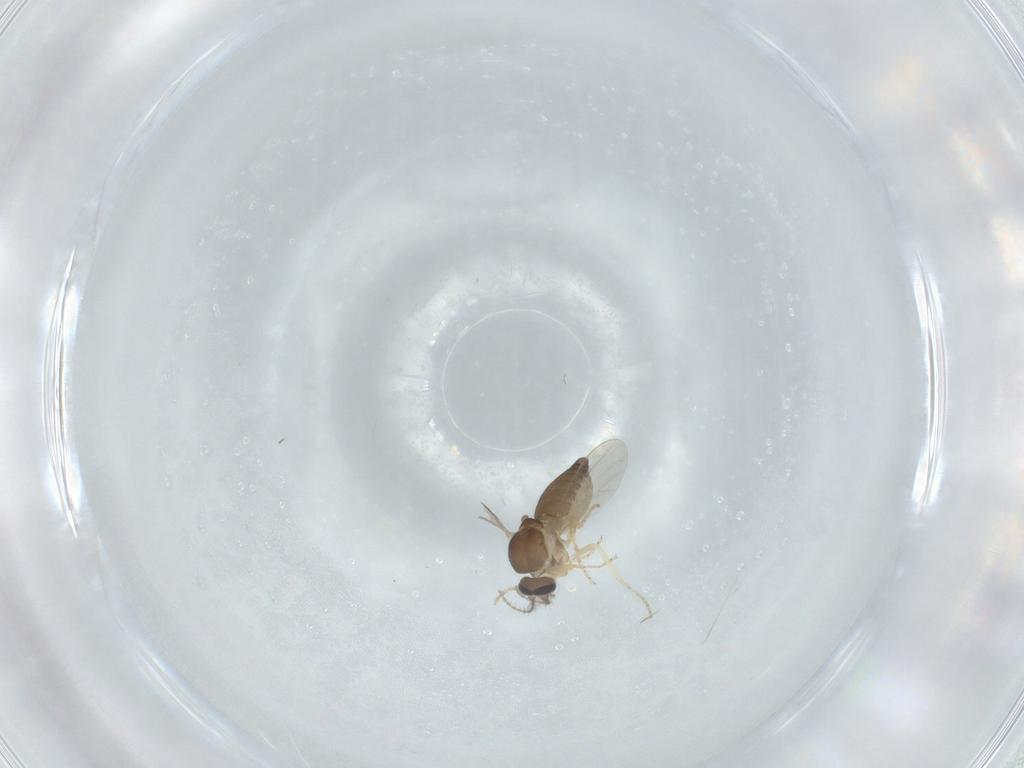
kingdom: Animalia
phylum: Arthropoda
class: Insecta
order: Diptera
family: Ceratopogonidae
